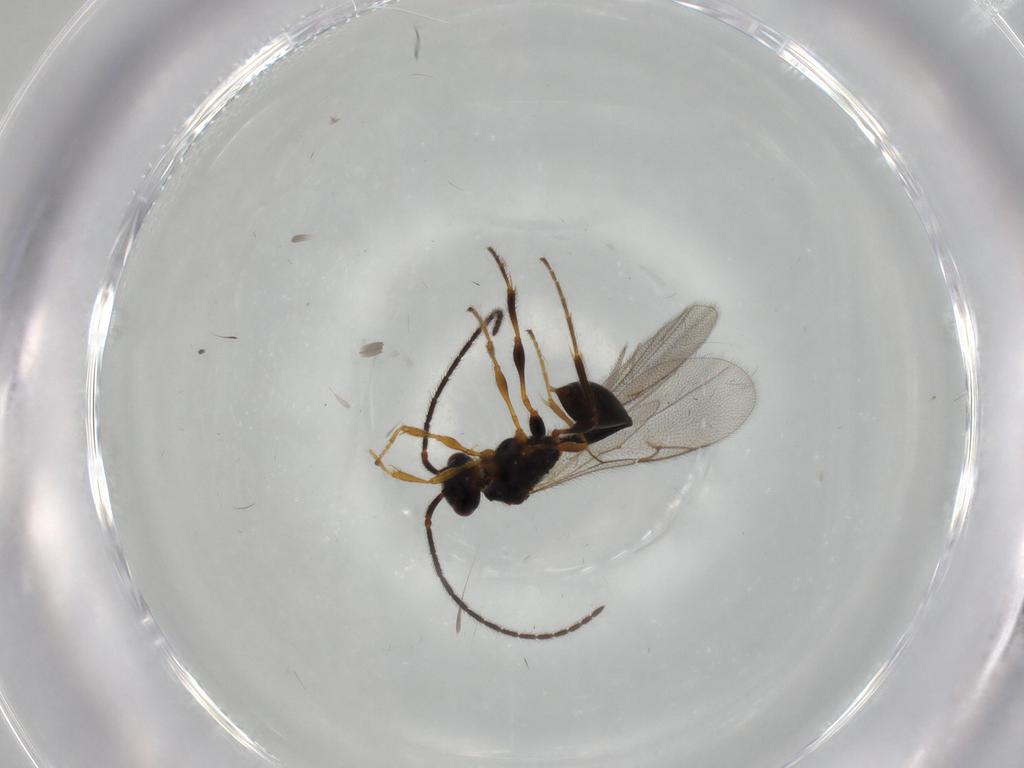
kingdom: Animalia
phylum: Arthropoda
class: Insecta
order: Hymenoptera
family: Diapriidae
